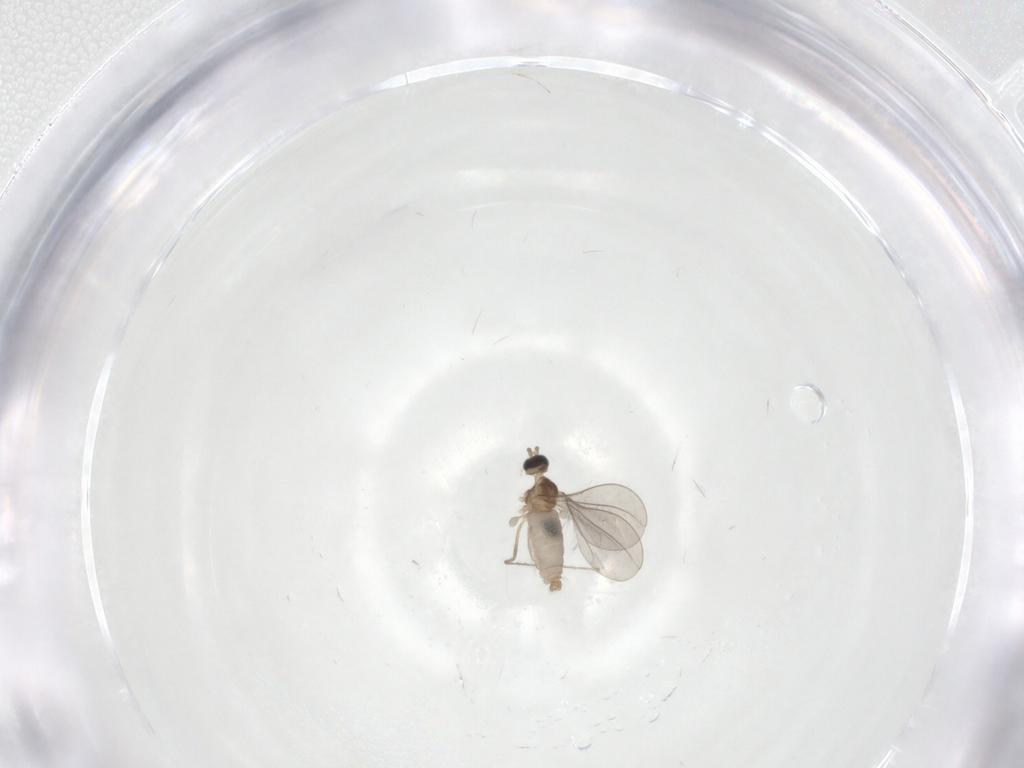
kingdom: Animalia
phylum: Arthropoda
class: Insecta
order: Diptera
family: Cecidomyiidae
